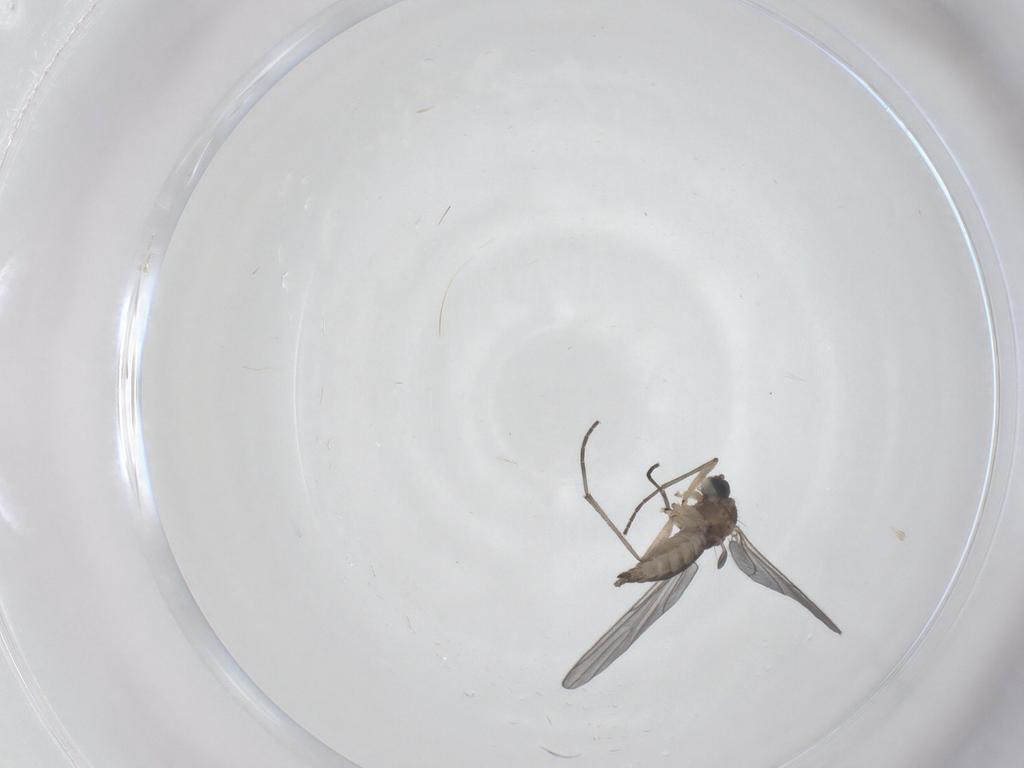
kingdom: Animalia
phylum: Arthropoda
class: Insecta
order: Diptera
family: Sciaridae
